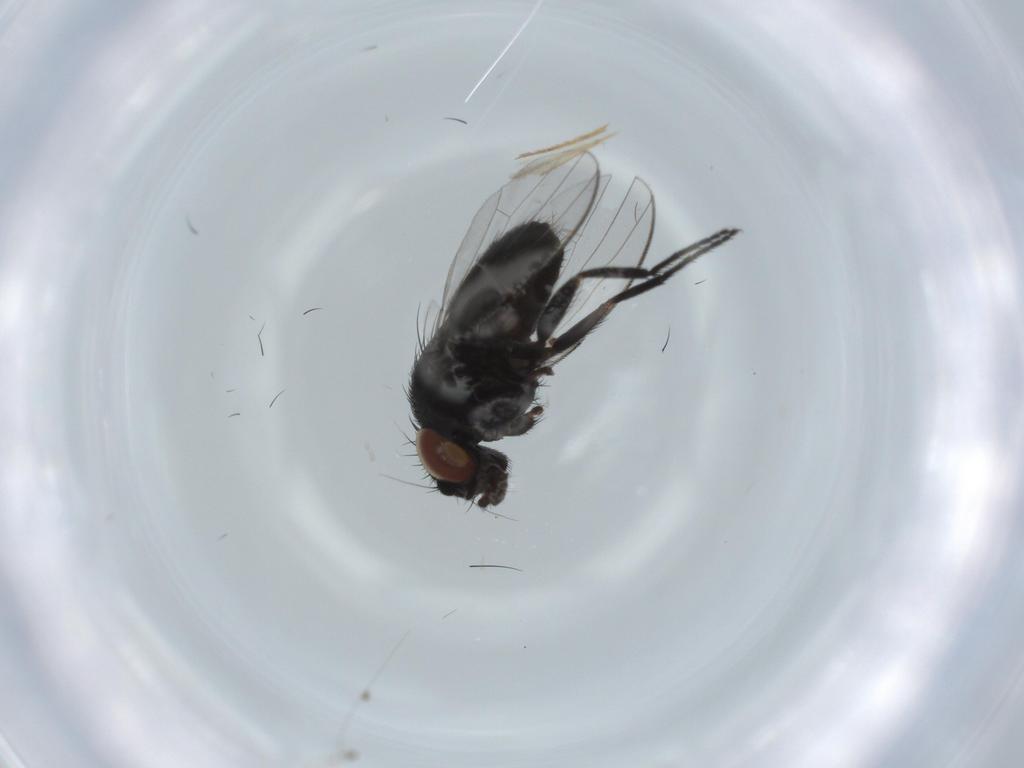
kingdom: Animalia
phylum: Arthropoda
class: Insecta
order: Diptera
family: Milichiidae
